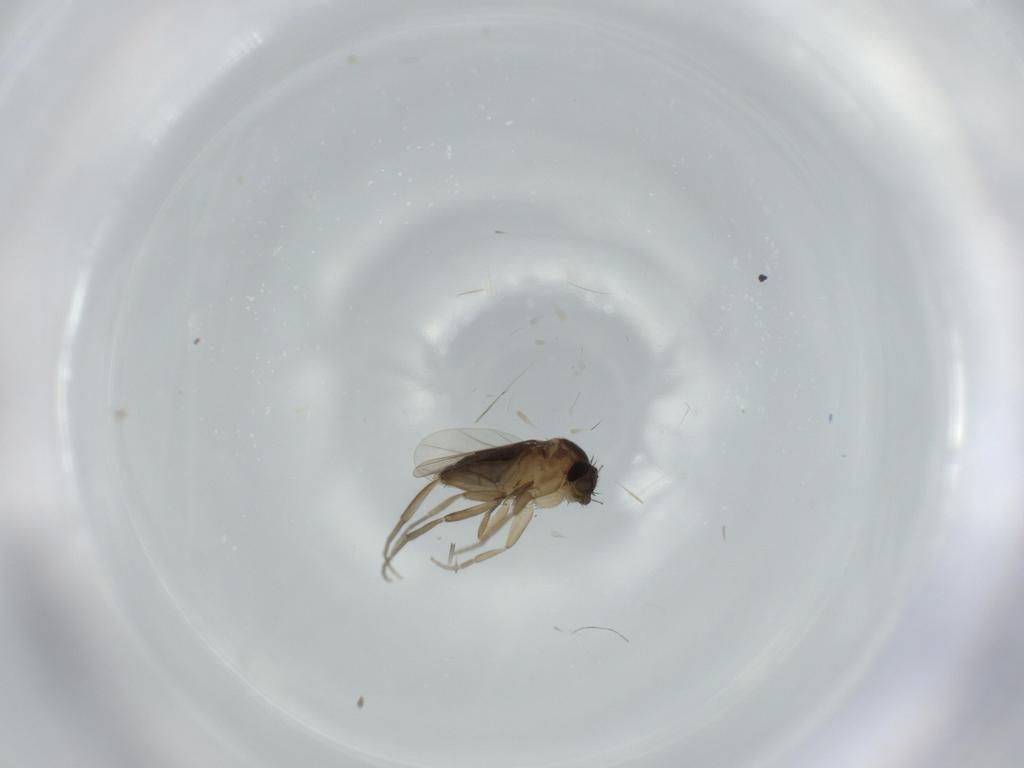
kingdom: Animalia
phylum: Arthropoda
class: Insecta
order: Diptera
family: Phoridae
